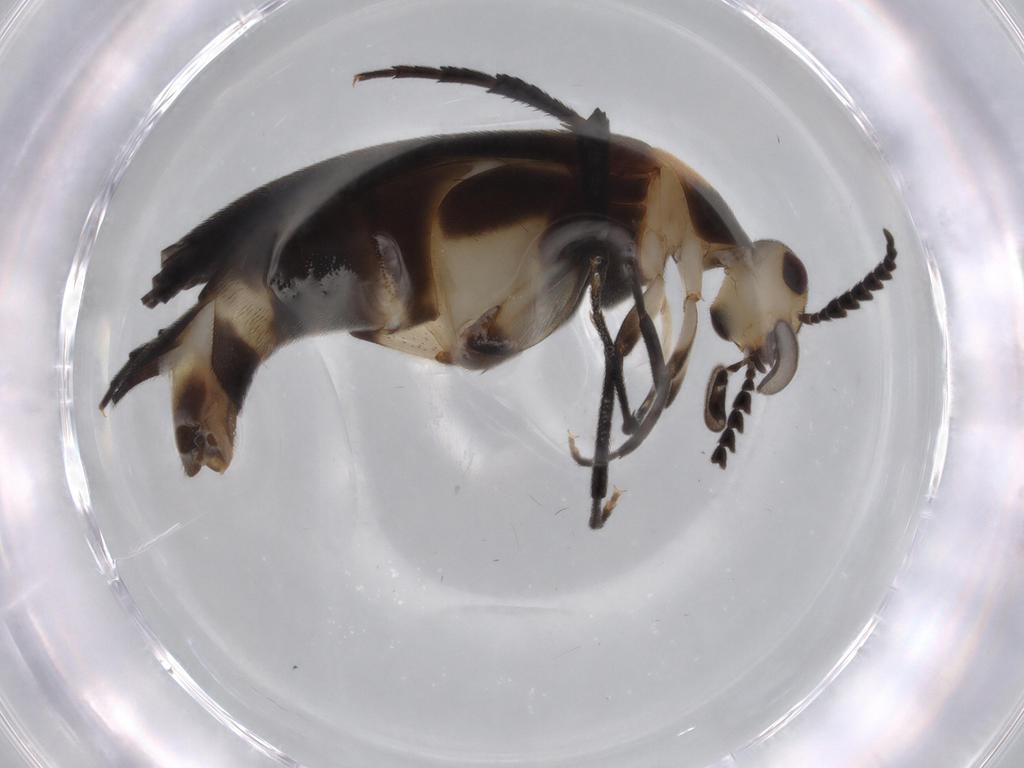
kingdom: Animalia
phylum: Arthropoda
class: Insecta
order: Coleoptera
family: Mordellidae
